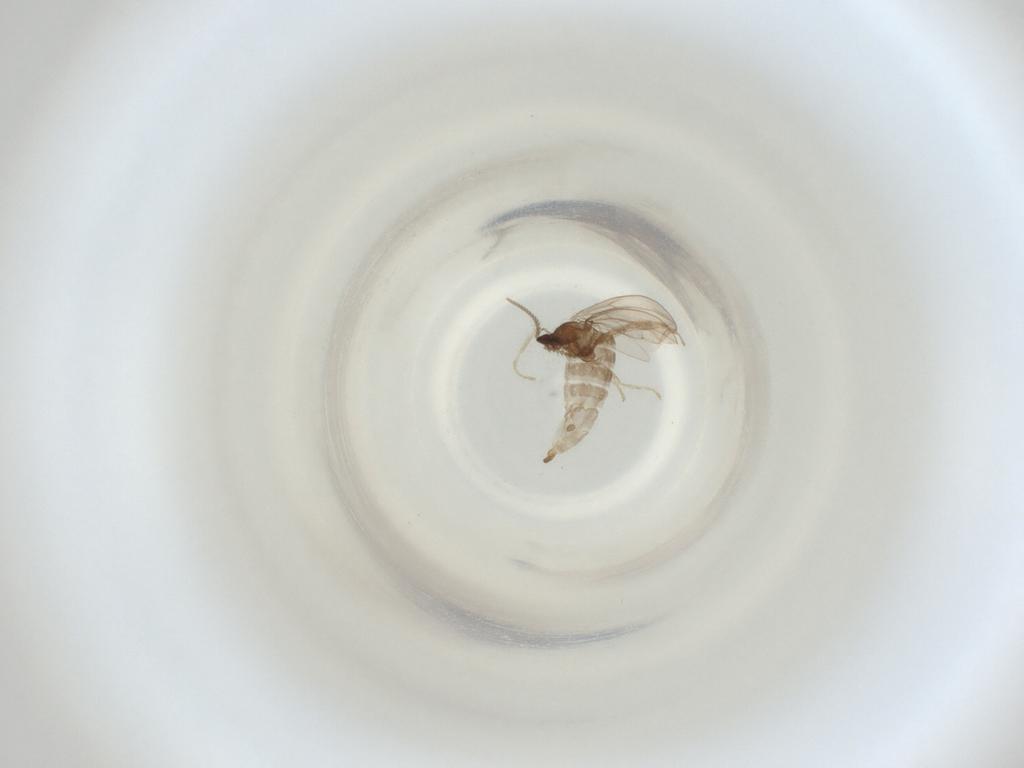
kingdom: Animalia
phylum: Arthropoda
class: Insecta
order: Diptera
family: Cecidomyiidae
